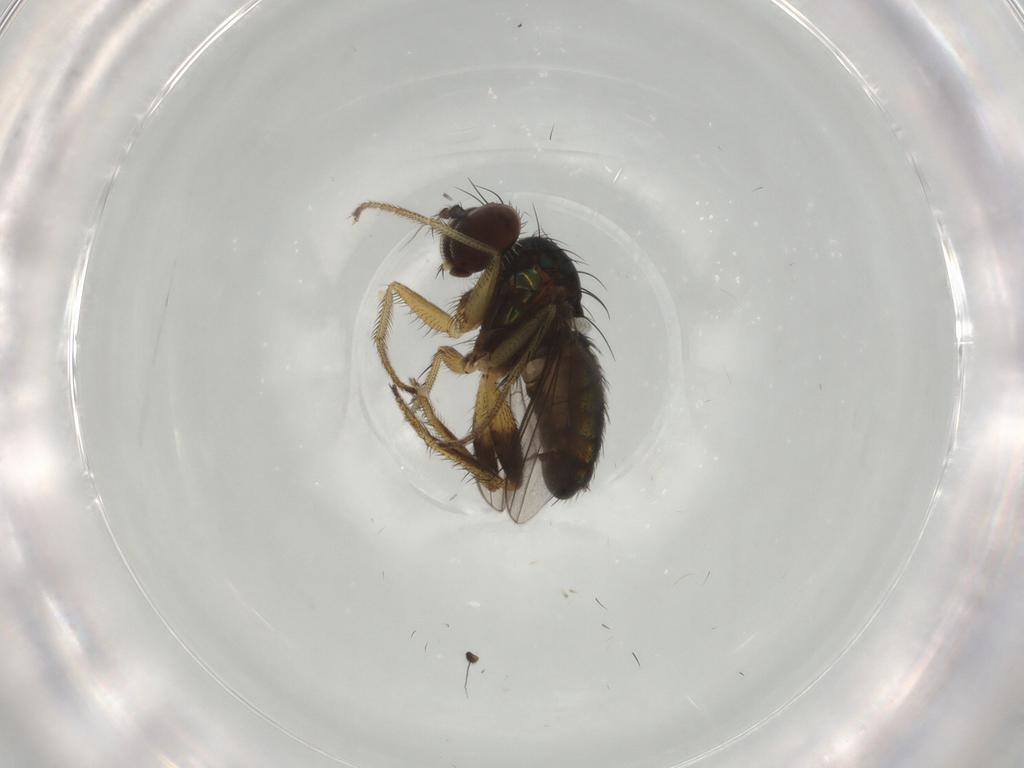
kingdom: Animalia
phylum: Arthropoda
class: Insecta
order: Diptera
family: Dolichopodidae
